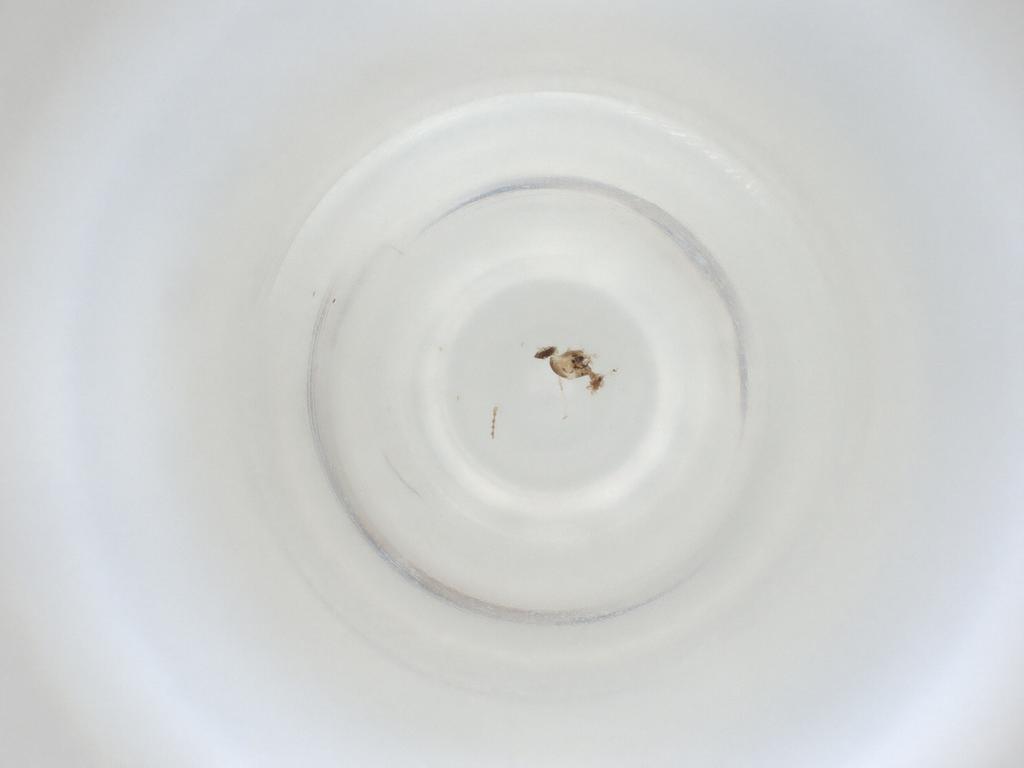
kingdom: Animalia
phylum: Arthropoda
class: Insecta
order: Diptera
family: Cecidomyiidae
